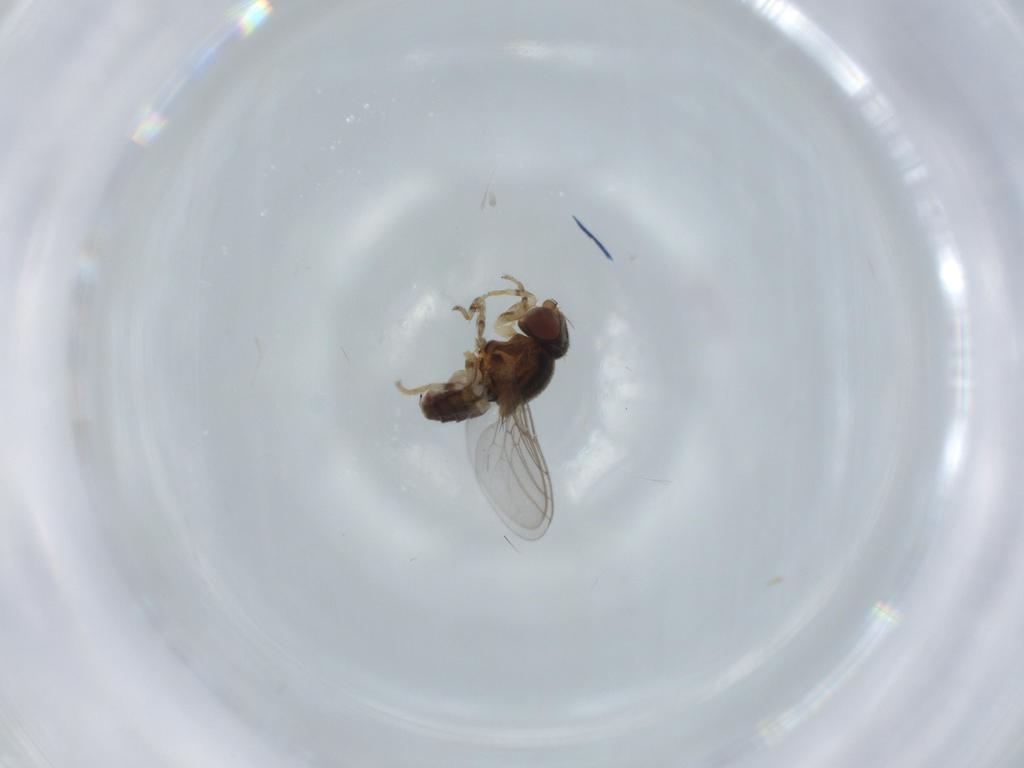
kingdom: Animalia
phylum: Arthropoda
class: Insecta
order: Diptera
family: Chloropidae
